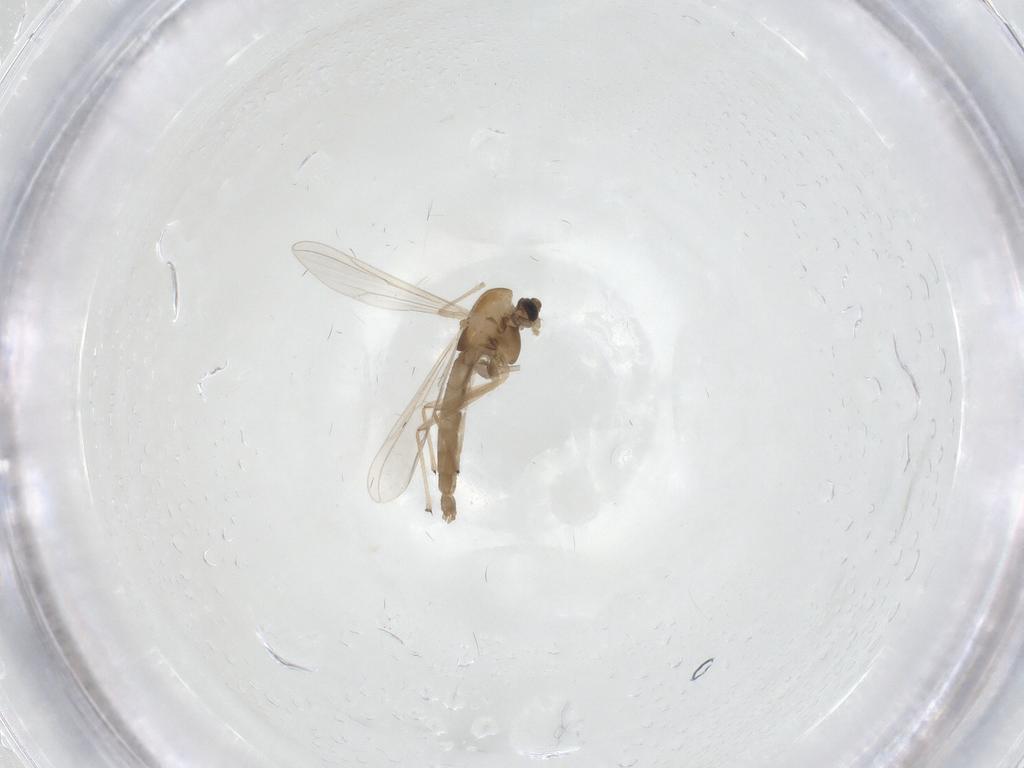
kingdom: Animalia
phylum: Arthropoda
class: Insecta
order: Diptera
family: Chironomidae
